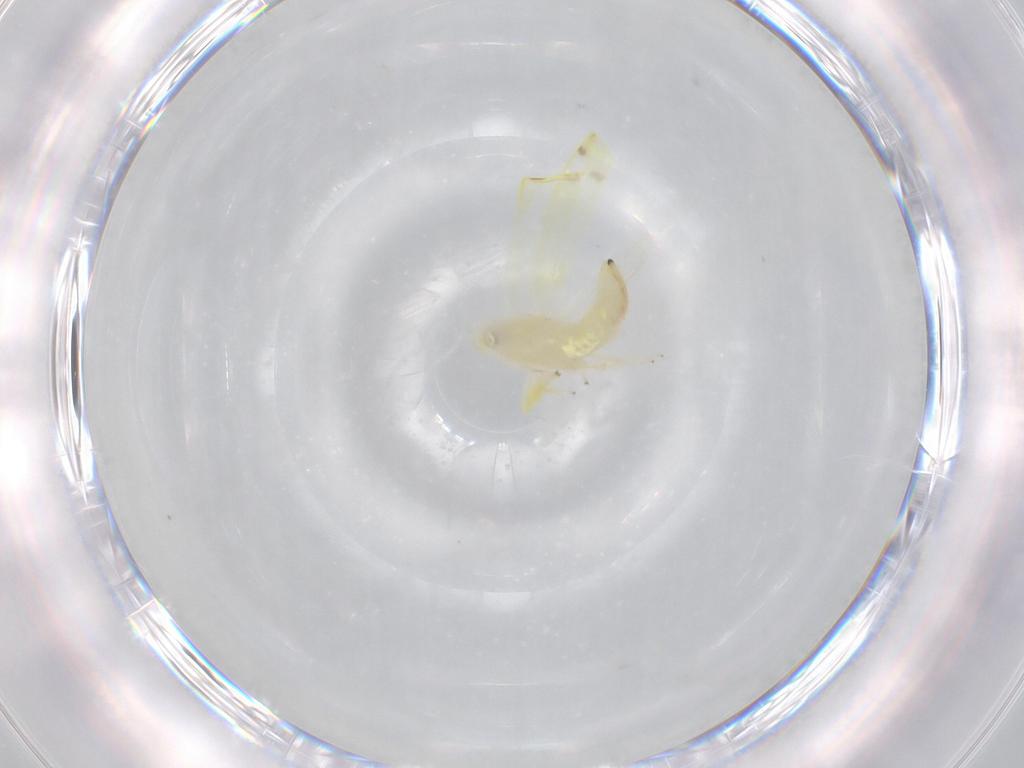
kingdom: Animalia
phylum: Arthropoda
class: Insecta
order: Hemiptera
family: Cicadellidae
